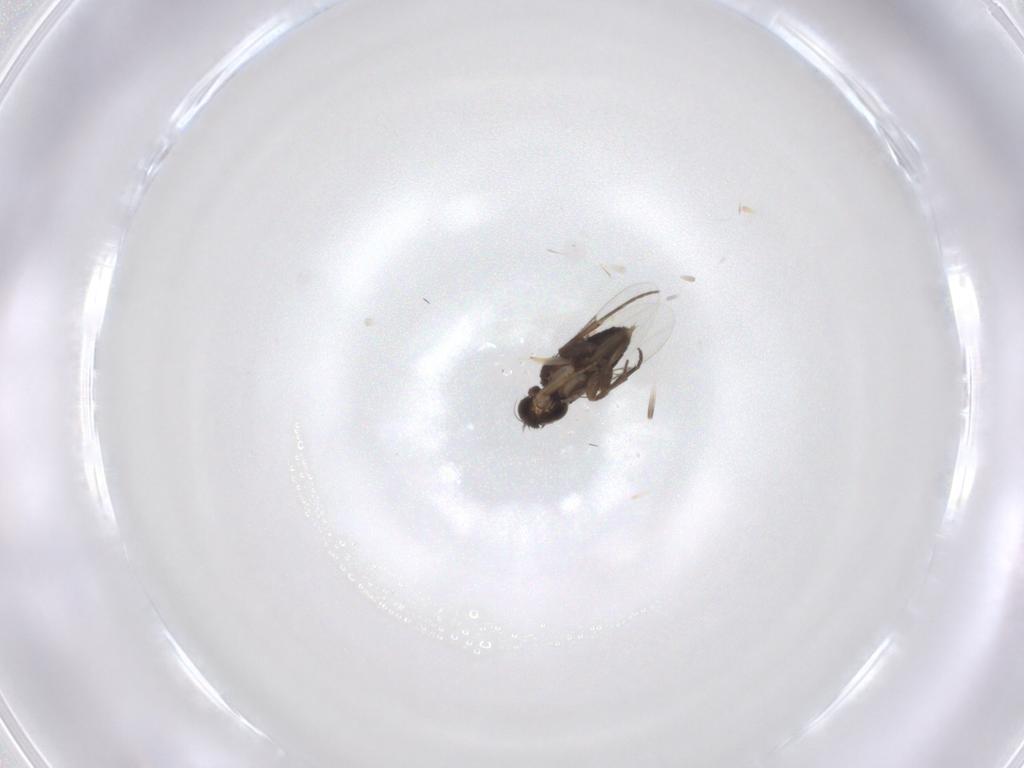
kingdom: Animalia
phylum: Arthropoda
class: Insecta
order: Diptera
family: Phoridae
